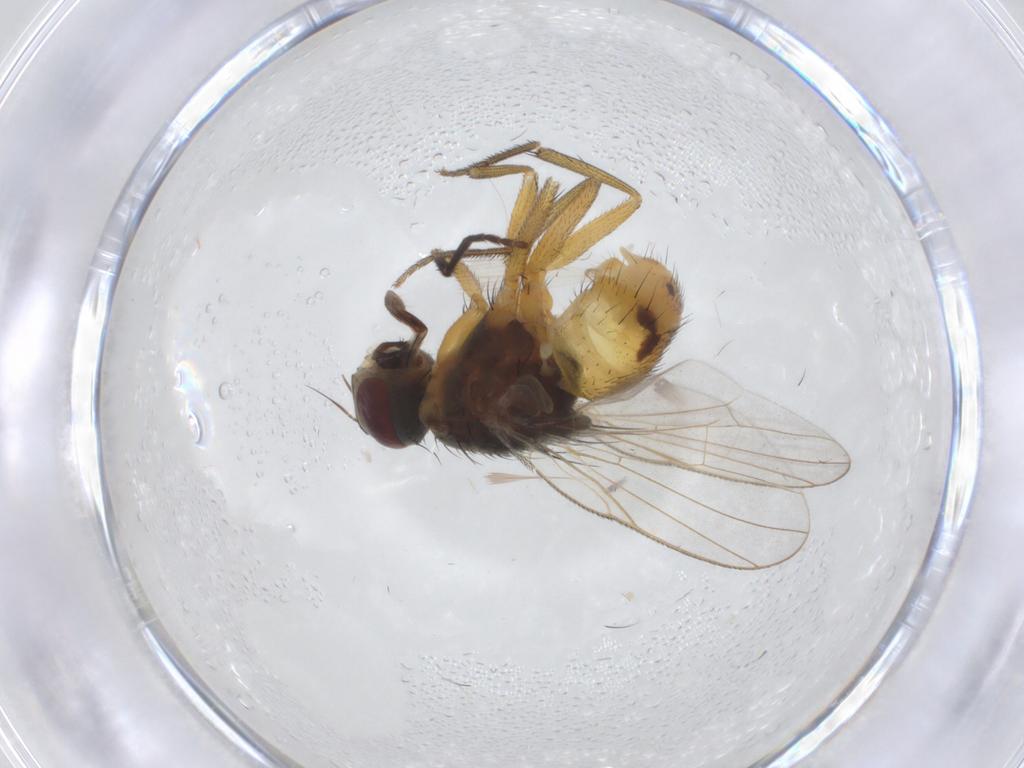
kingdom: Animalia
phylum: Arthropoda
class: Insecta
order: Diptera
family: Muscidae
